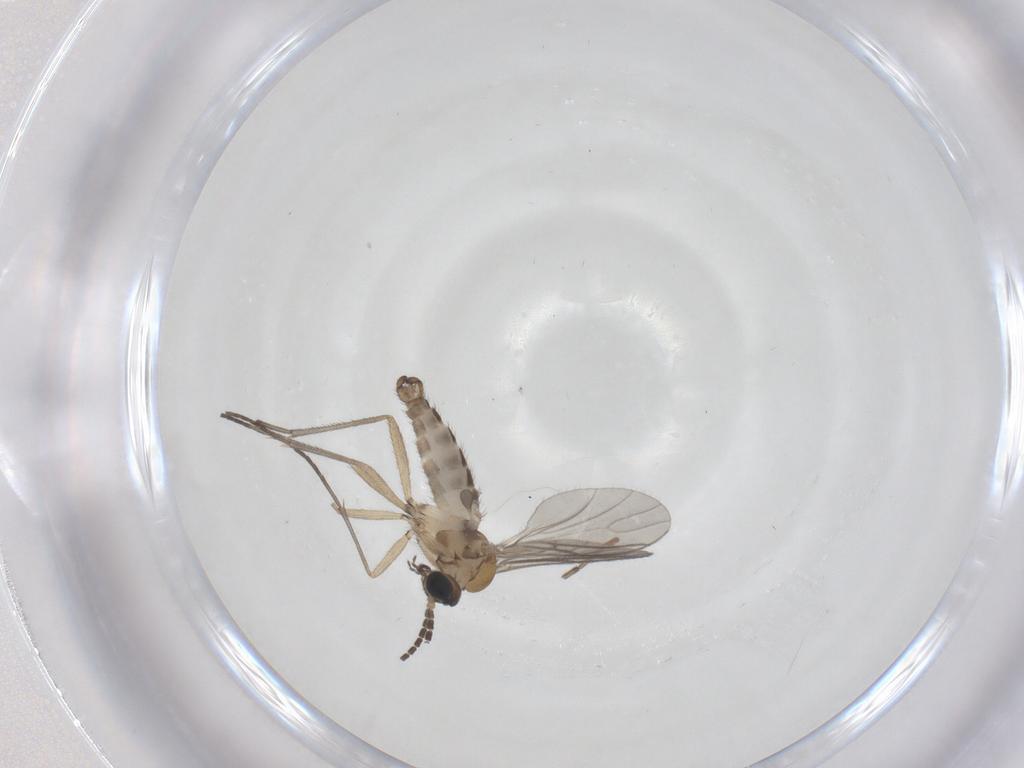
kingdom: Animalia
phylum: Arthropoda
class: Insecta
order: Diptera
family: Sciaridae
